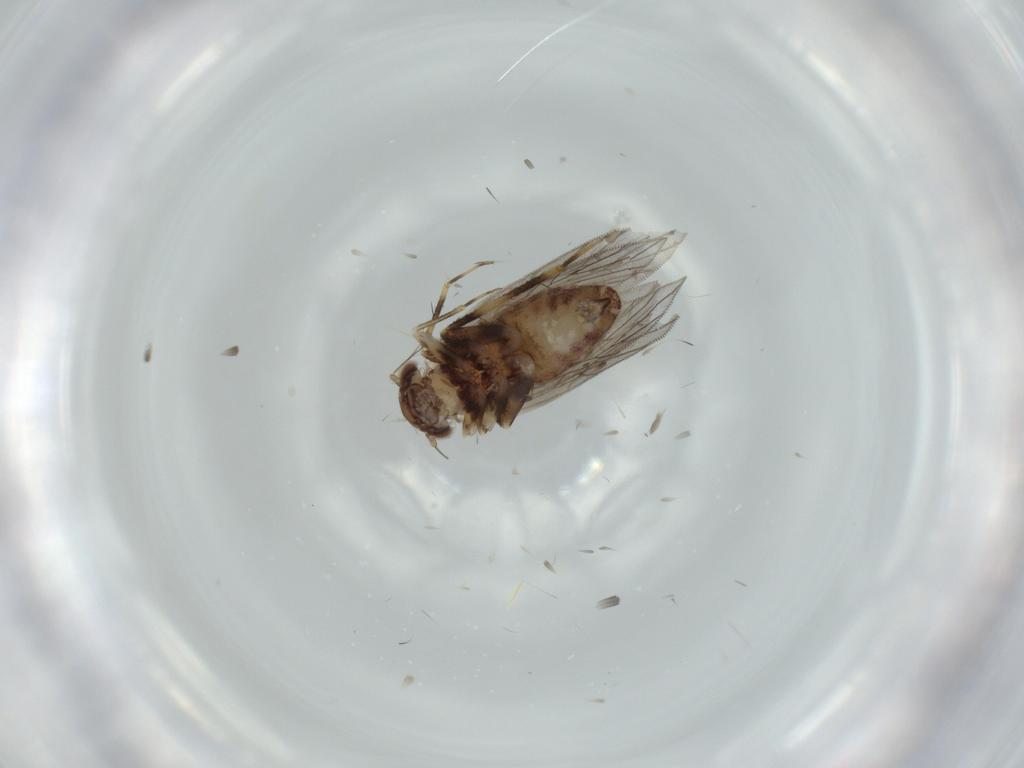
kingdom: Animalia
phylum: Arthropoda
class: Insecta
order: Psocodea
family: Lepidopsocidae
